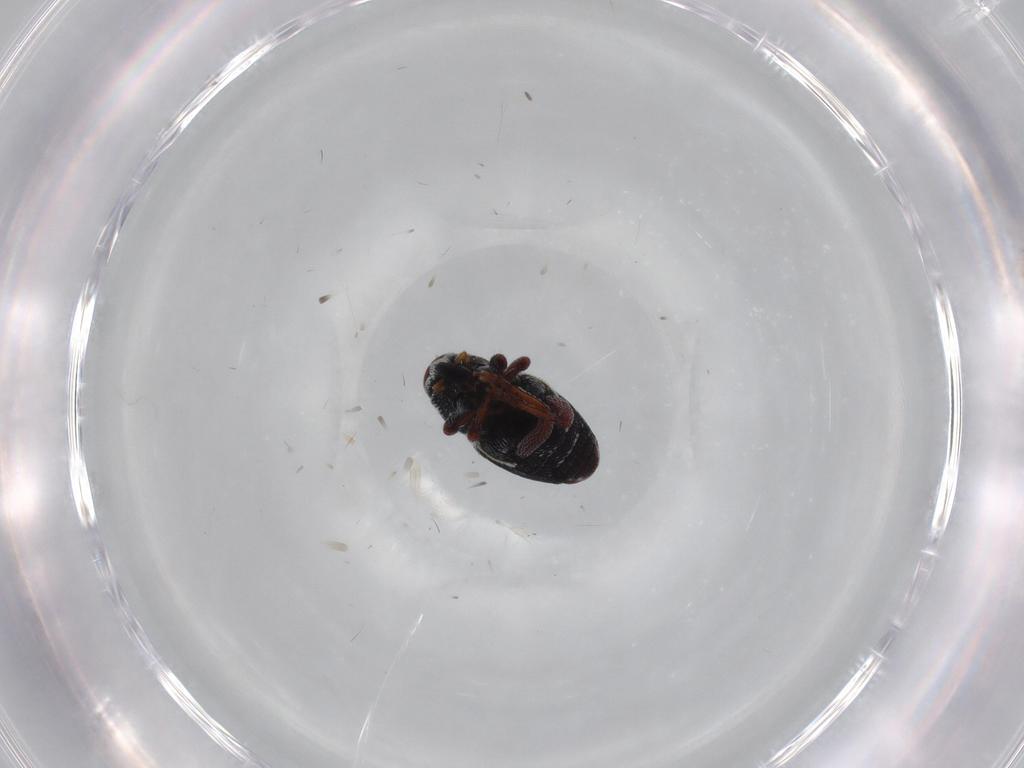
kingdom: Animalia
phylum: Arthropoda
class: Insecta
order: Coleoptera
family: Curculionidae
